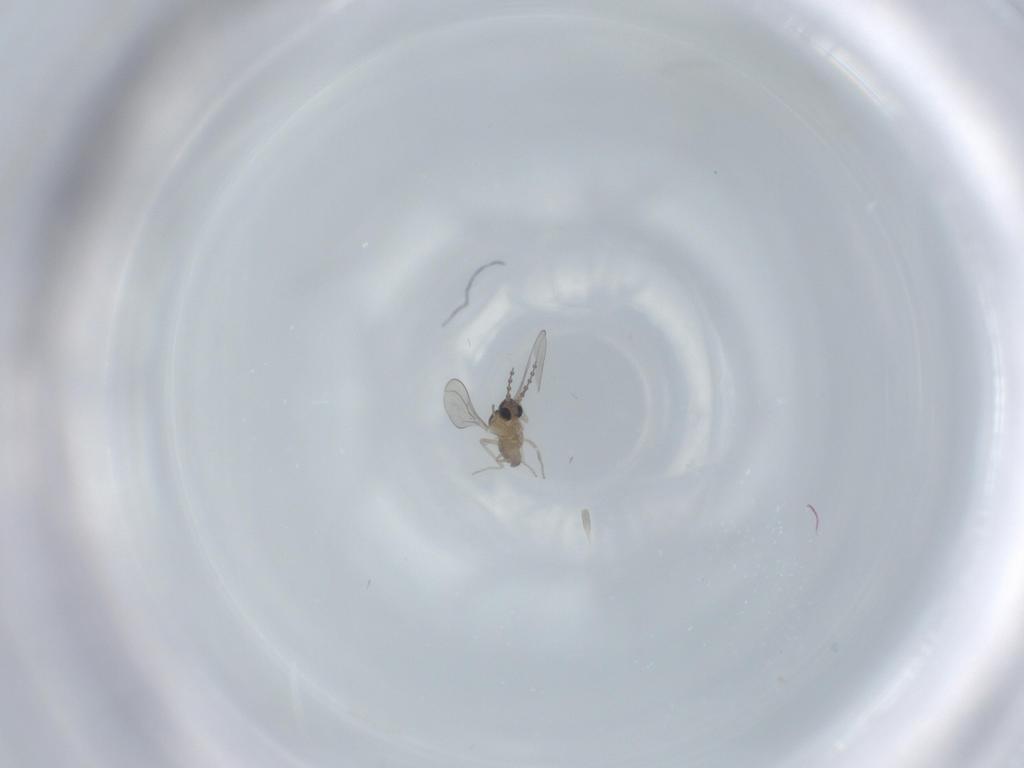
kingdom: Animalia
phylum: Arthropoda
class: Insecta
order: Diptera
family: Cecidomyiidae
